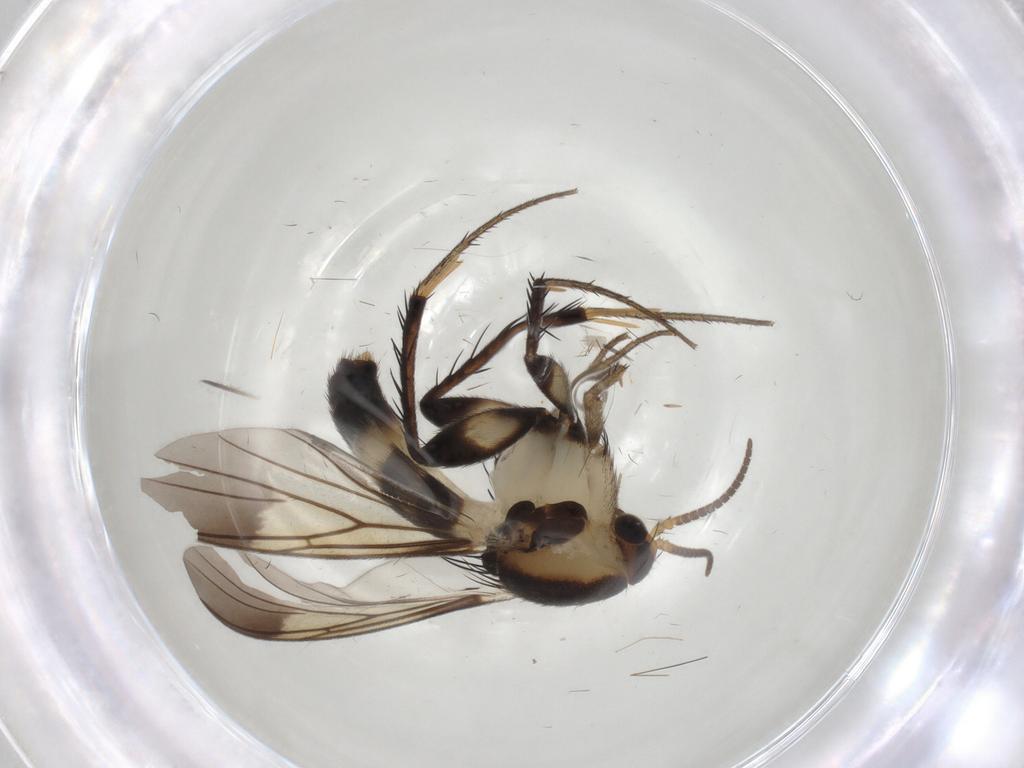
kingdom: Animalia
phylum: Arthropoda
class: Insecta
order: Diptera
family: Mycetophilidae
